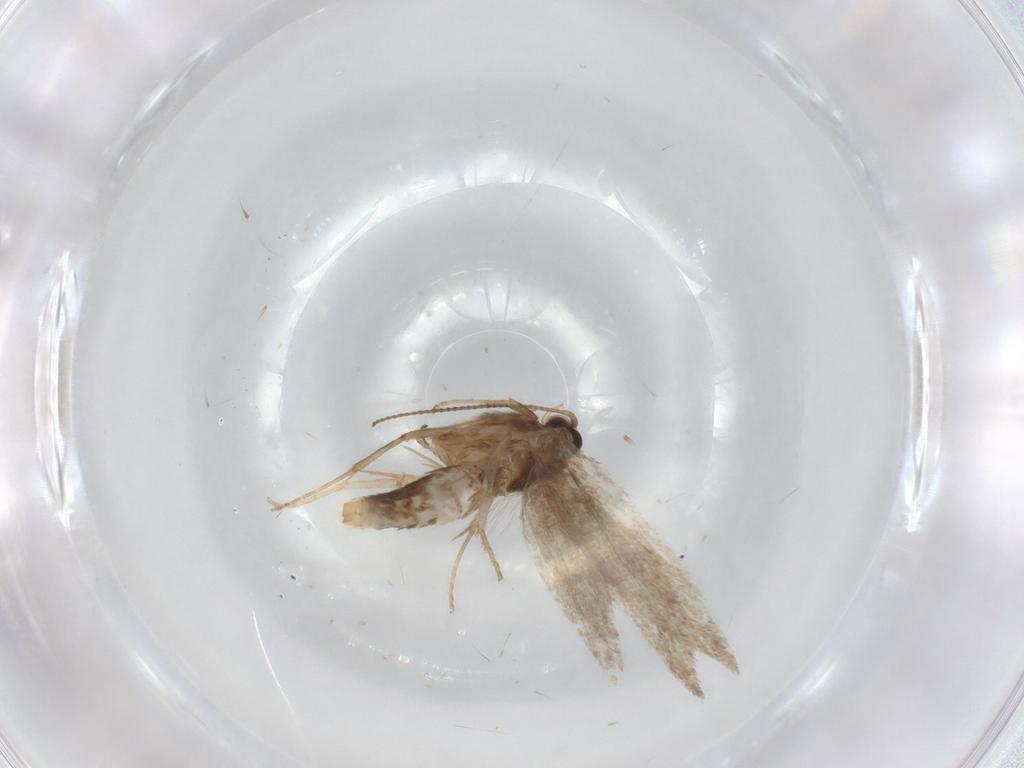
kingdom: Animalia
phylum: Arthropoda
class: Insecta
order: Lepidoptera
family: Nepticulidae
